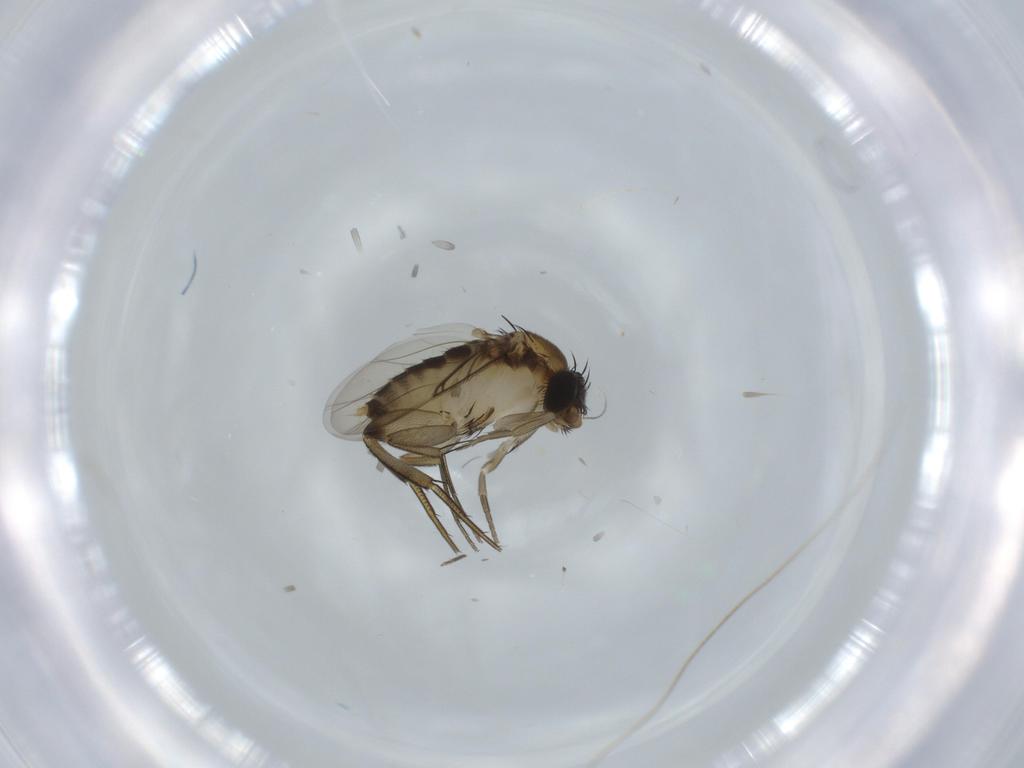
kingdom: Animalia
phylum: Arthropoda
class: Insecta
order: Diptera
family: Phoridae
